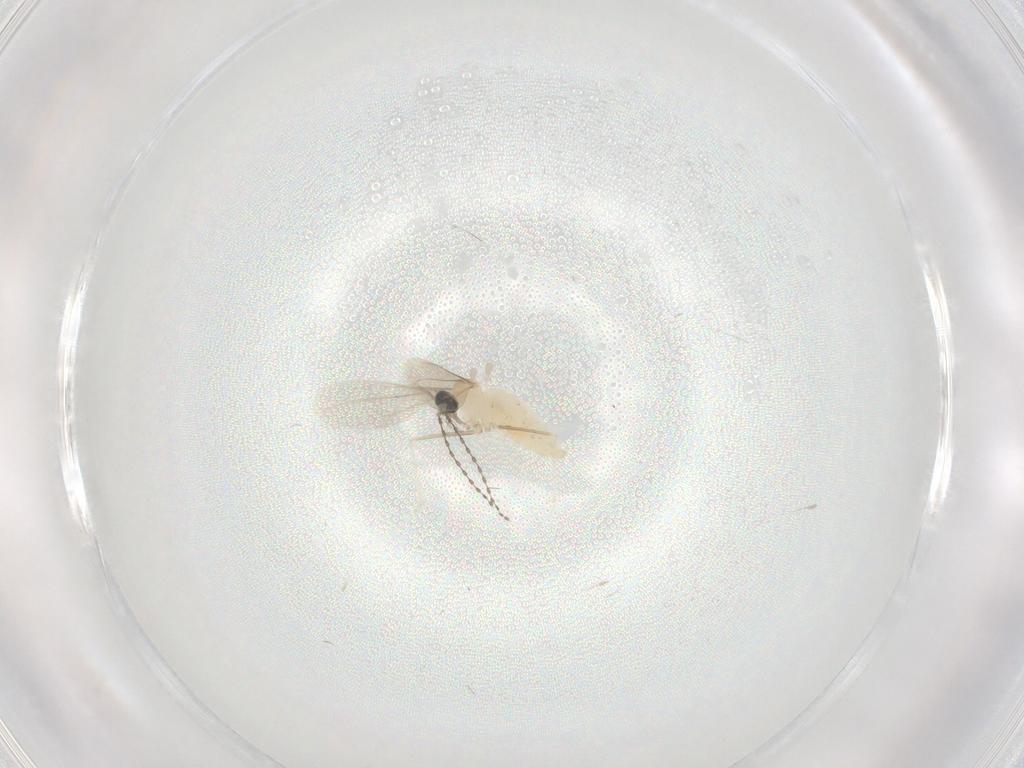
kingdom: Animalia
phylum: Arthropoda
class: Insecta
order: Diptera
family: Cecidomyiidae
